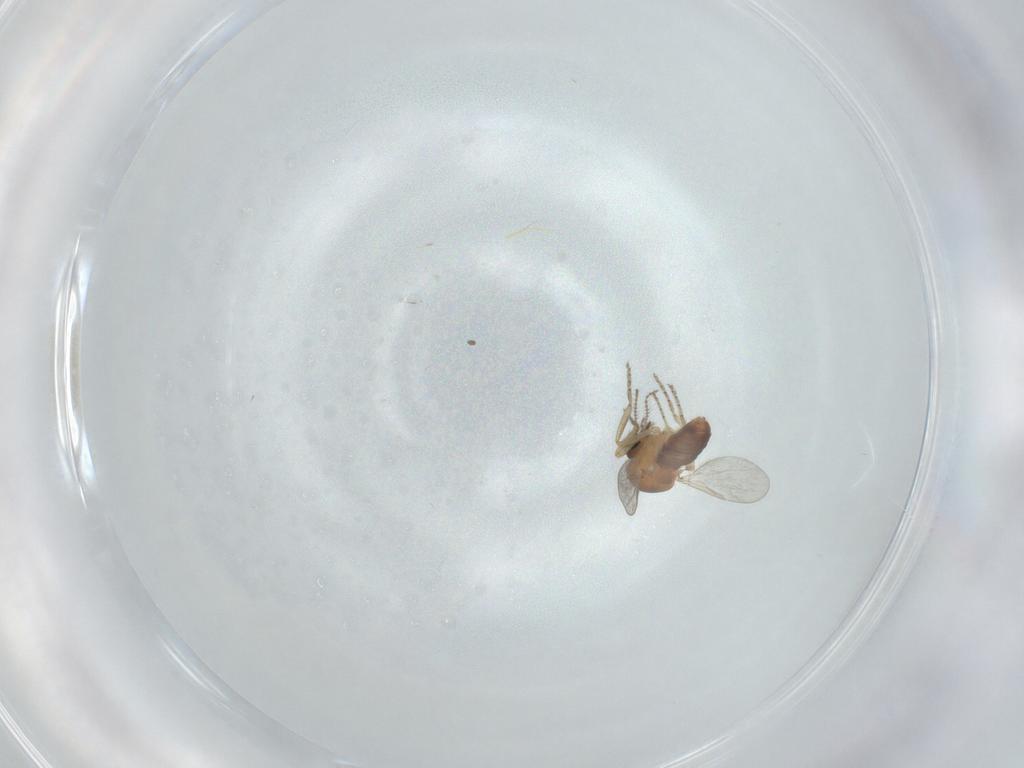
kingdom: Animalia
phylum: Arthropoda
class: Insecta
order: Diptera
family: Ceratopogonidae
